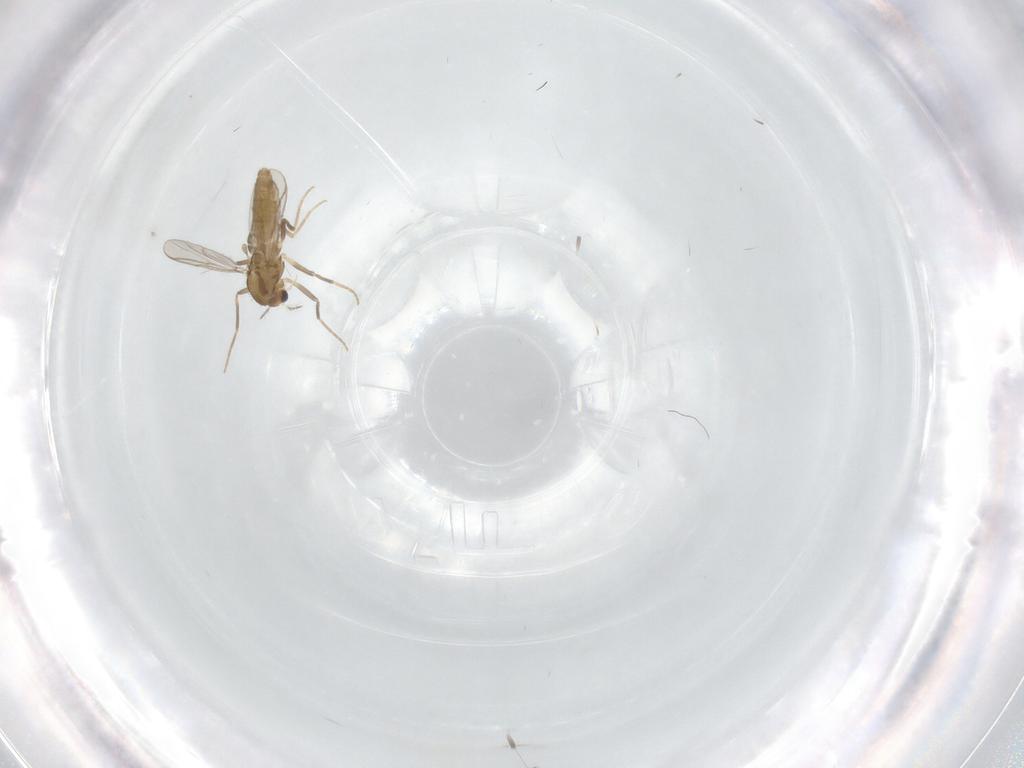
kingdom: Animalia
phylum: Arthropoda
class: Insecta
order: Diptera
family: Chironomidae
